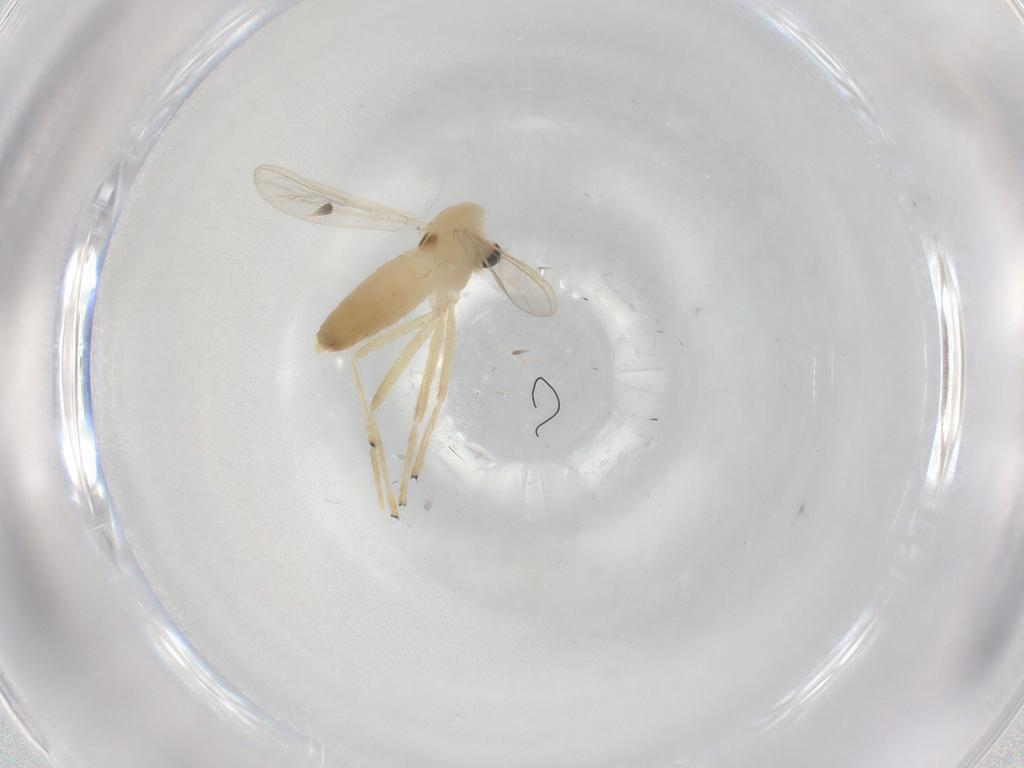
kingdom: Animalia
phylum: Arthropoda
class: Insecta
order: Diptera
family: Chironomidae
